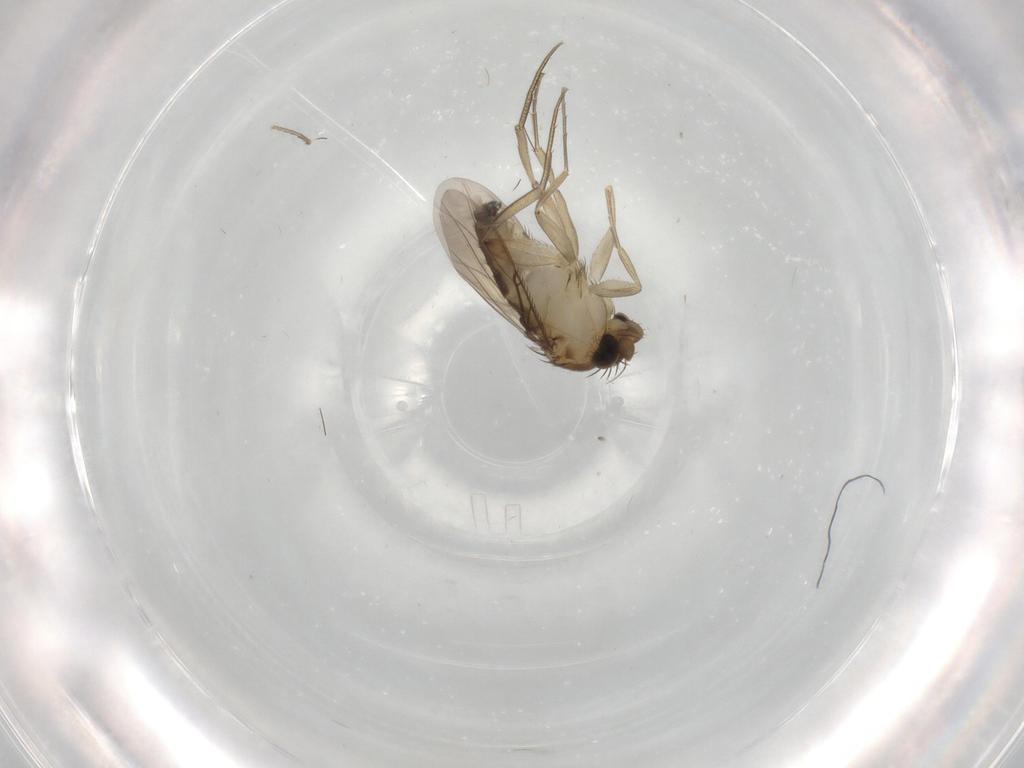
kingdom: Animalia
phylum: Arthropoda
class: Insecta
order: Diptera
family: Phoridae
